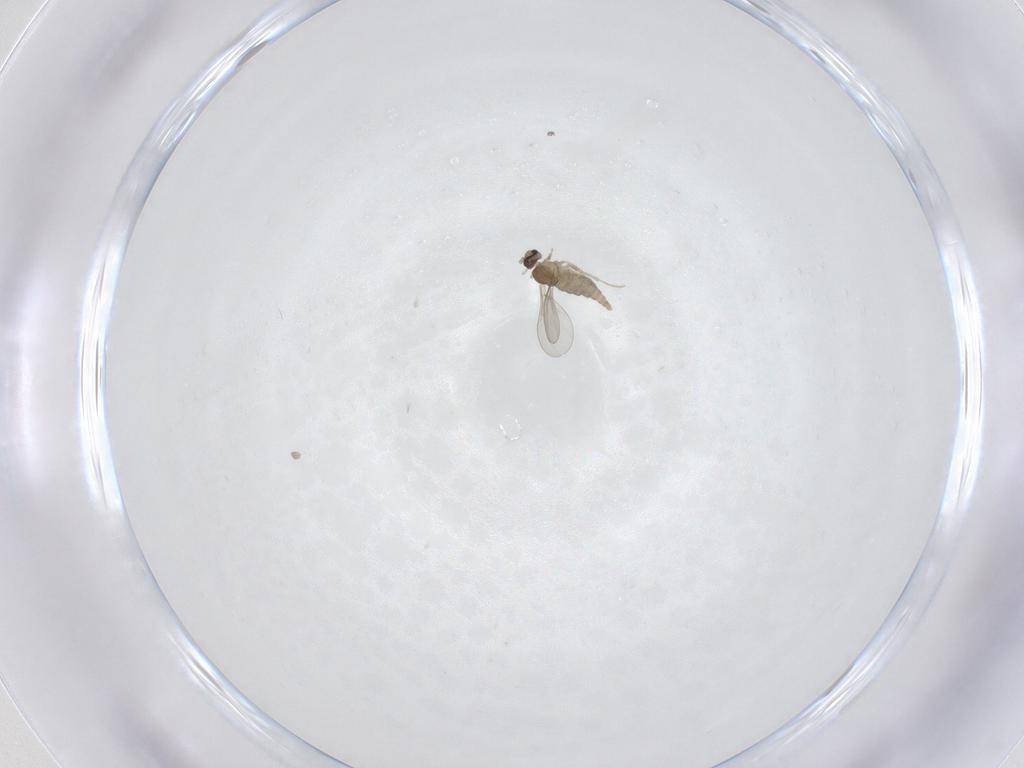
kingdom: Animalia
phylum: Arthropoda
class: Insecta
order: Diptera
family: Cecidomyiidae
